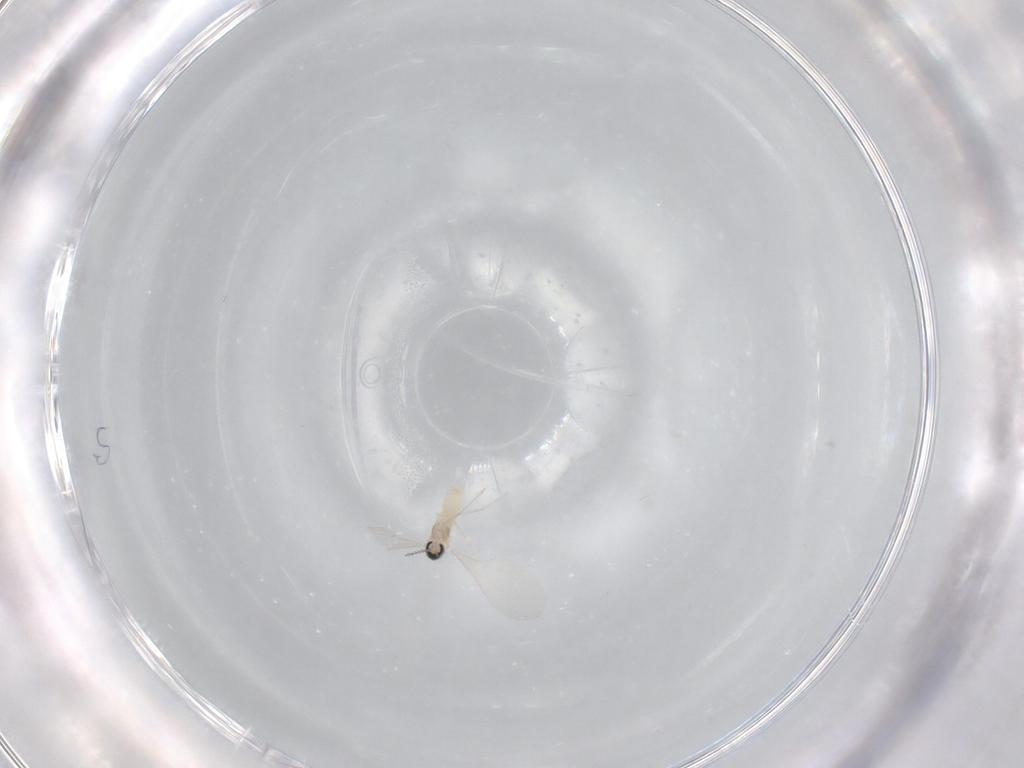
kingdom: Animalia
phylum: Arthropoda
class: Insecta
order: Diptera
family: Cecidomyiidae
